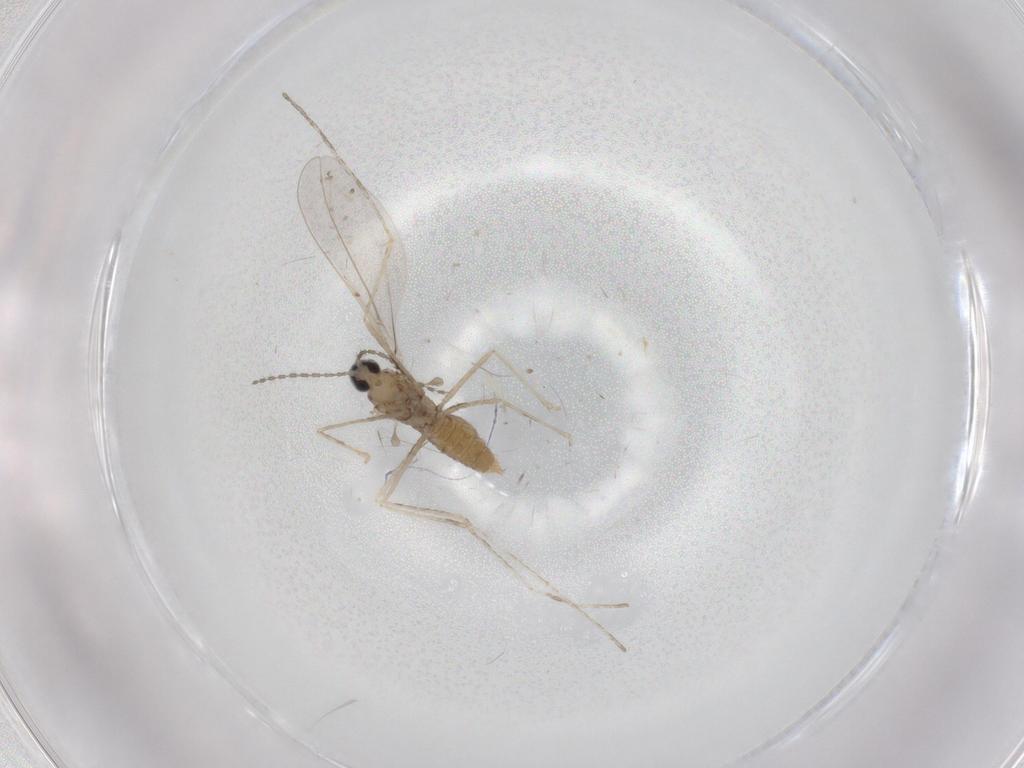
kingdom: Animalia
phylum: Arthropoda
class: Insecta
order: Diptera
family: Cecidomyiidae
